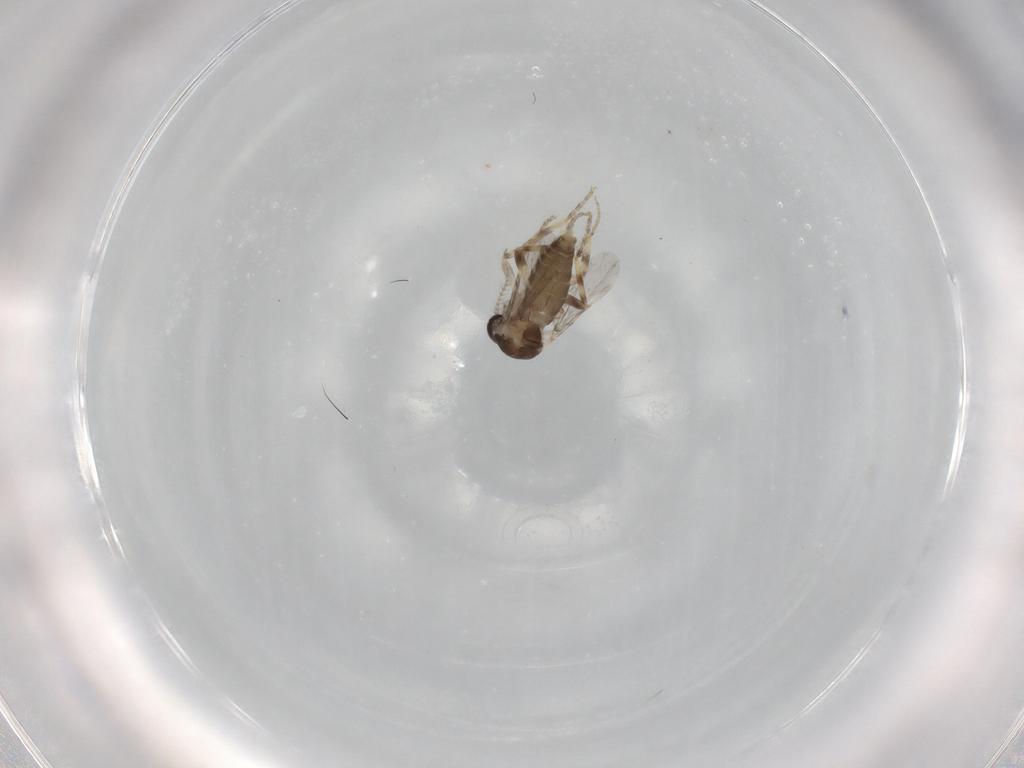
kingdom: Animalia
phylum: Arthropoda
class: Insecta
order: Diptera
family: Ceratopogonidae
